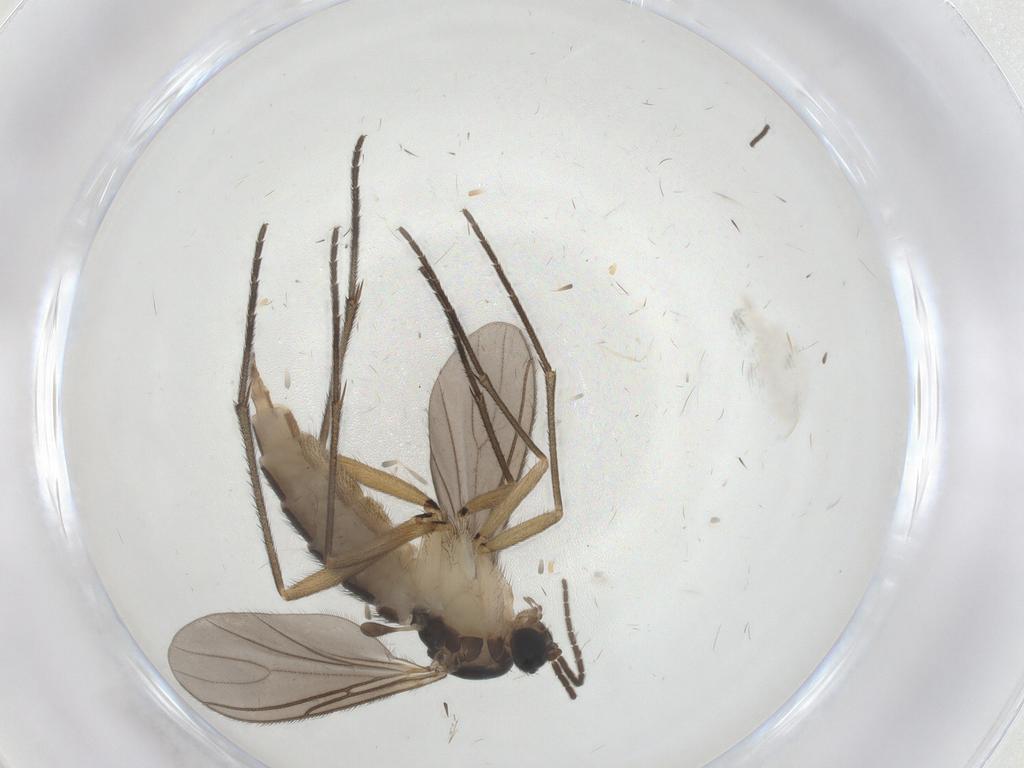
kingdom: Animalia
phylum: Arthropoda
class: Insecta
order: Diptera
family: Sciaridae
